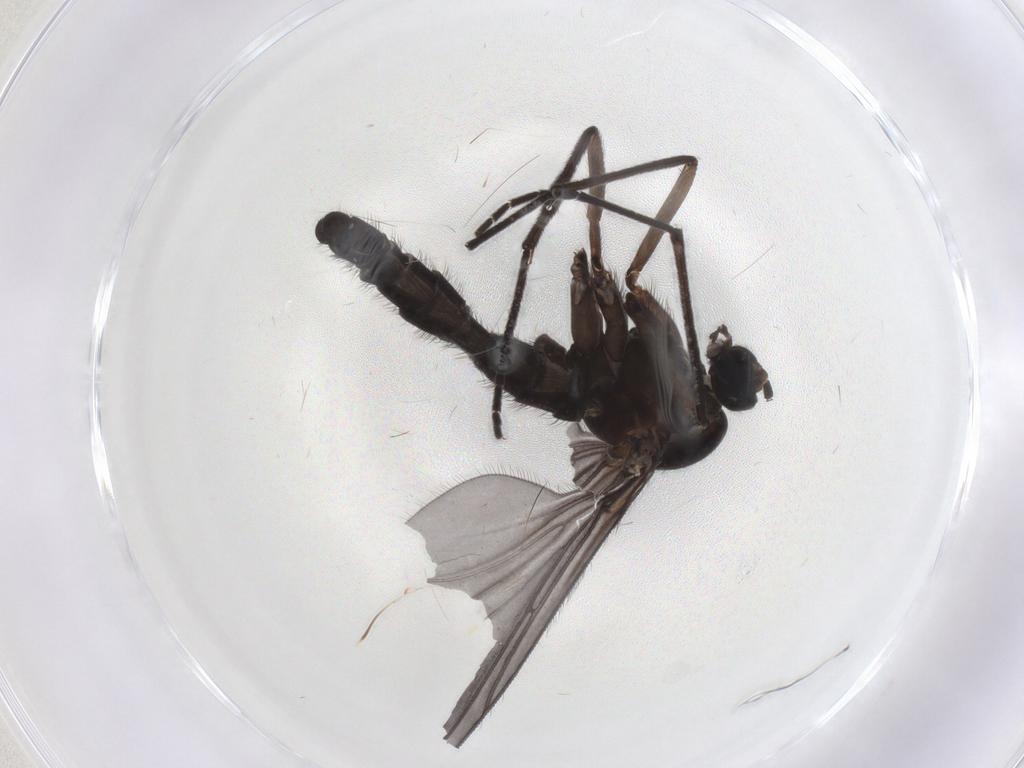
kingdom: Animalia
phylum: Arthropoda
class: Insecta
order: Diptera
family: Sciaridae
